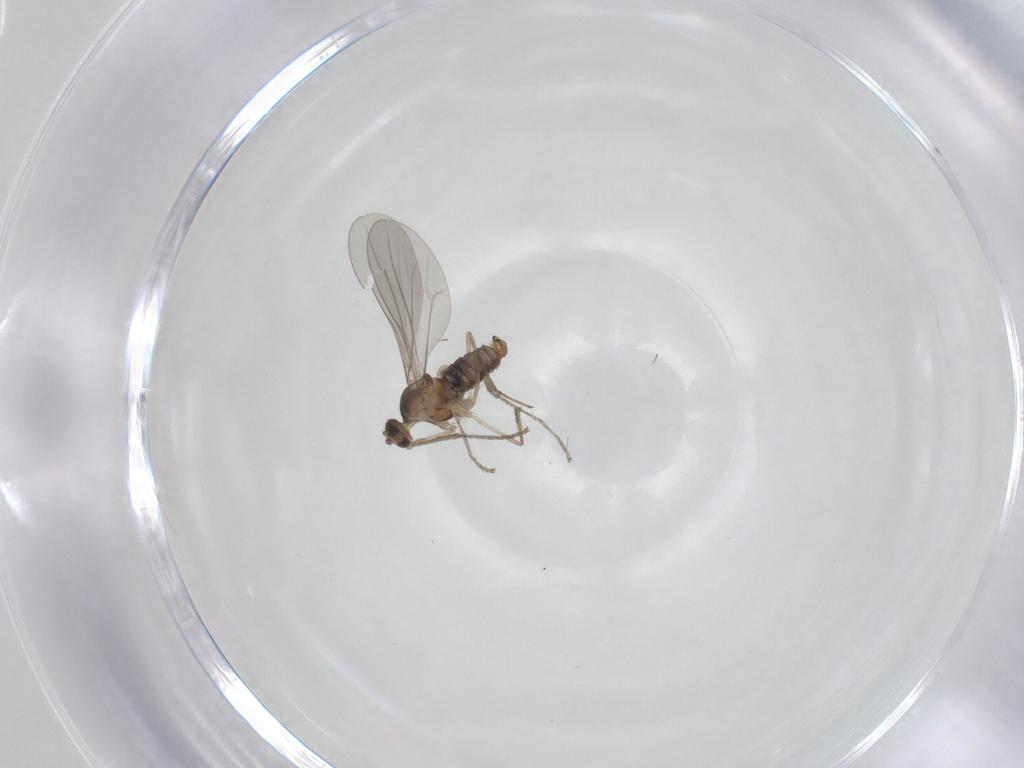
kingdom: Animalia
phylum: Arthropoda
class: Insecta
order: Diptera
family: Cecidomyiidae
